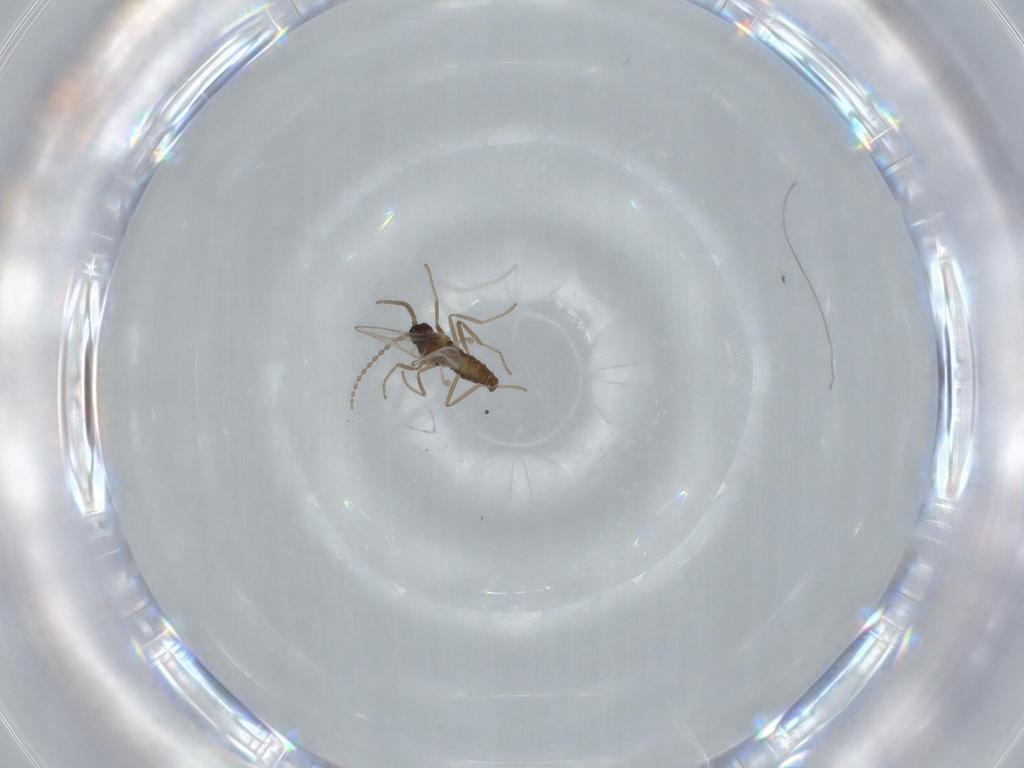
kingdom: Animalia
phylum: Arthropoda
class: Insecta
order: Diptera
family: Cecidomyiidae
